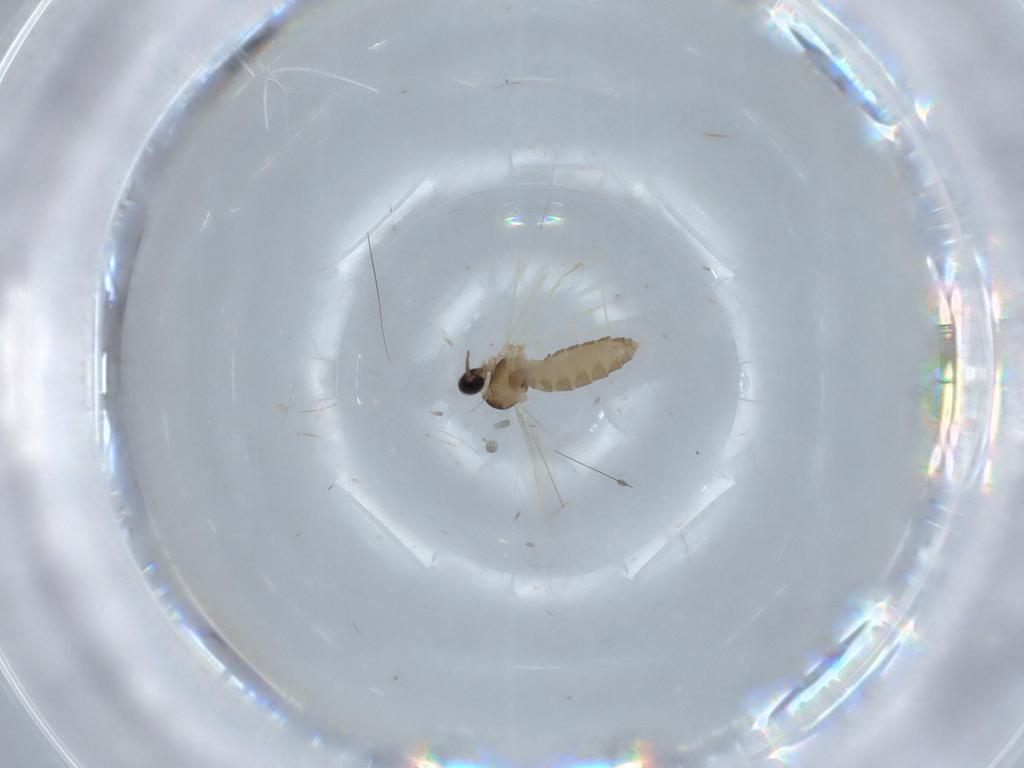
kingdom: Animalia
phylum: Arthropoda
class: Insecta
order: Diptera
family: Cecidomyiidae
